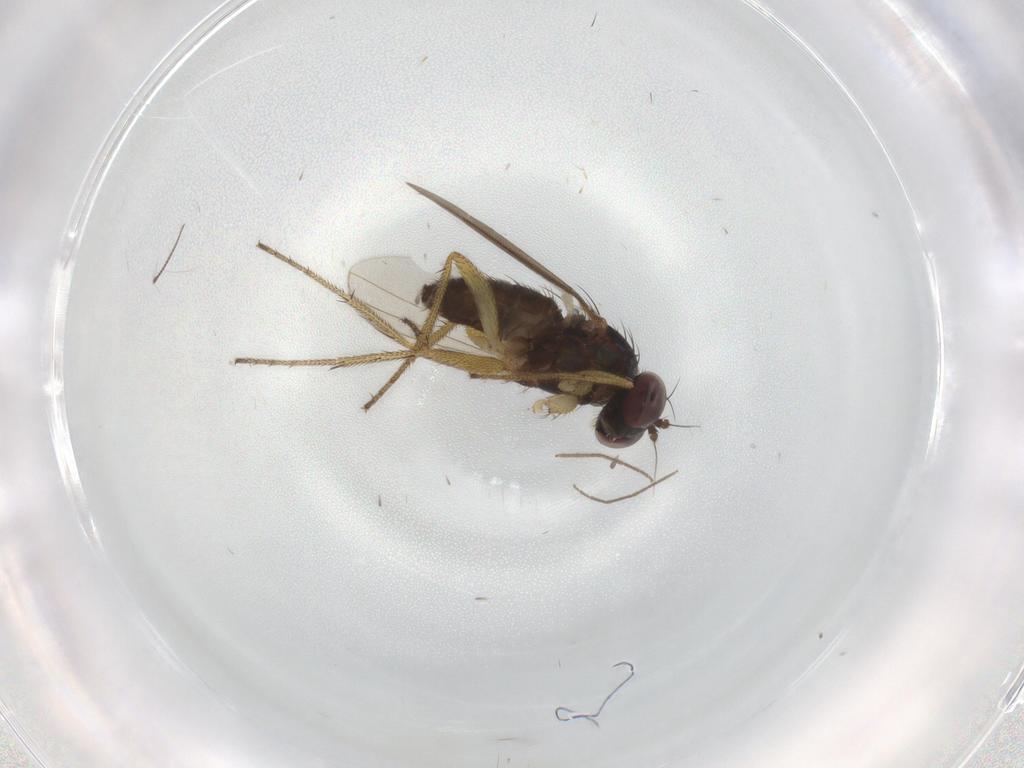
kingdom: Animalia
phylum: Arthropoda
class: Insecta
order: Diptera
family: Dolichopodidae
